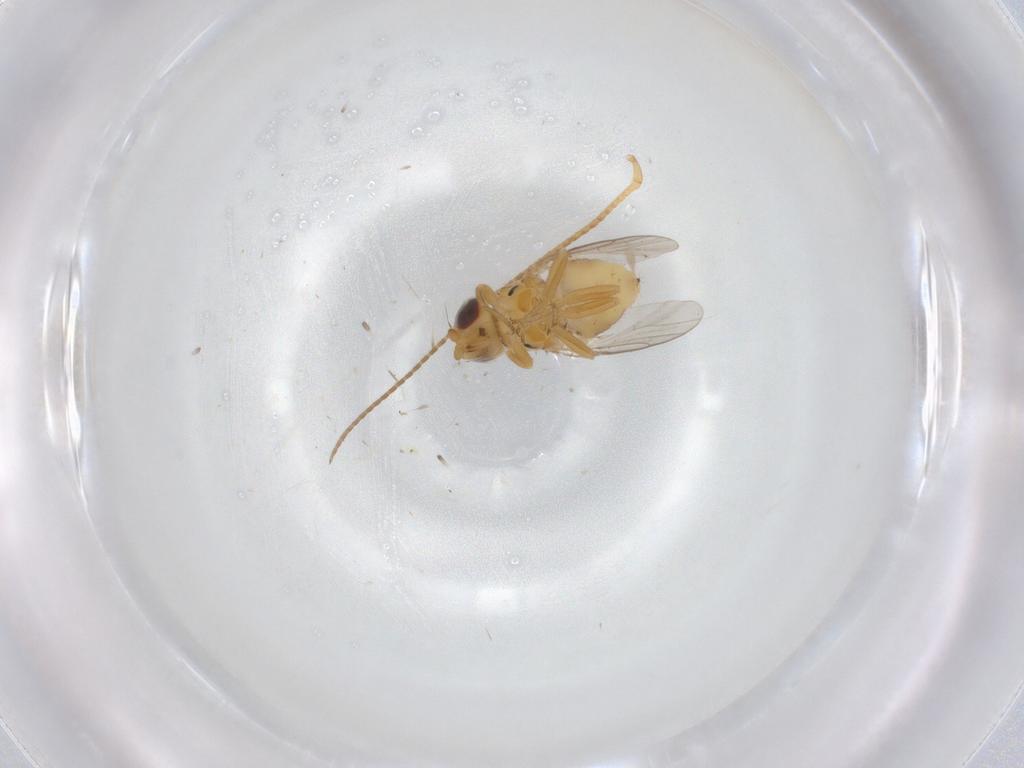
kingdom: Animalia
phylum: Arthropoda
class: Insecta
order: Diptera
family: Chloropidae
